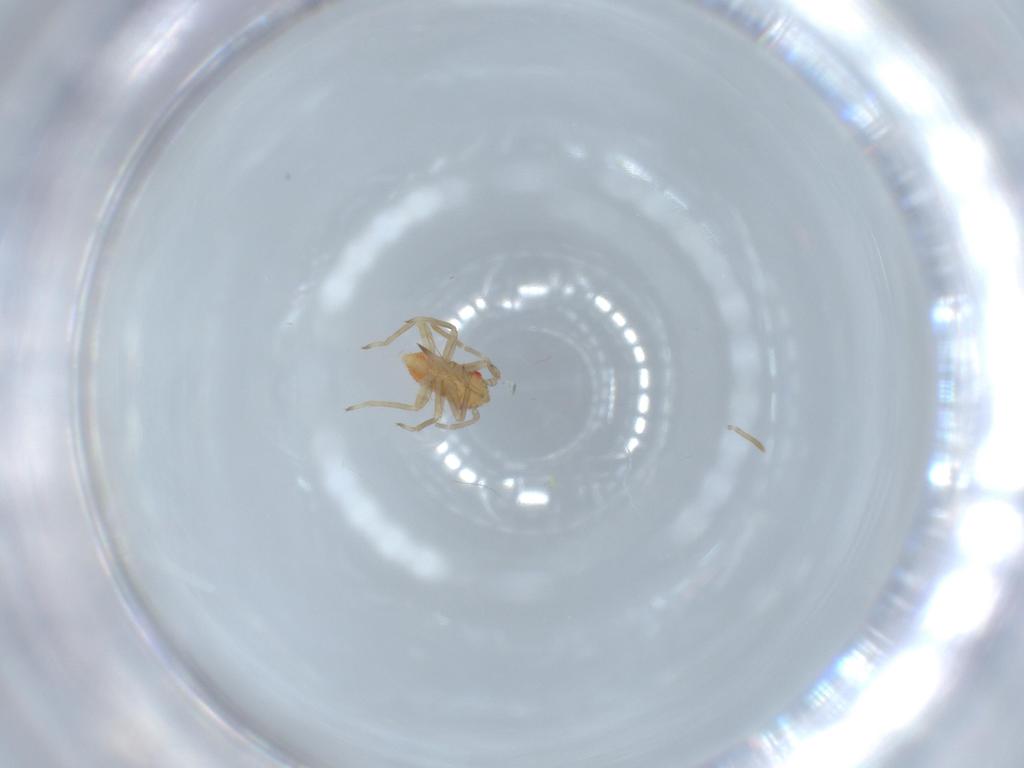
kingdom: Animalia
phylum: Arthropoda
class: Insecta
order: Hemiptera
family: Miridae
